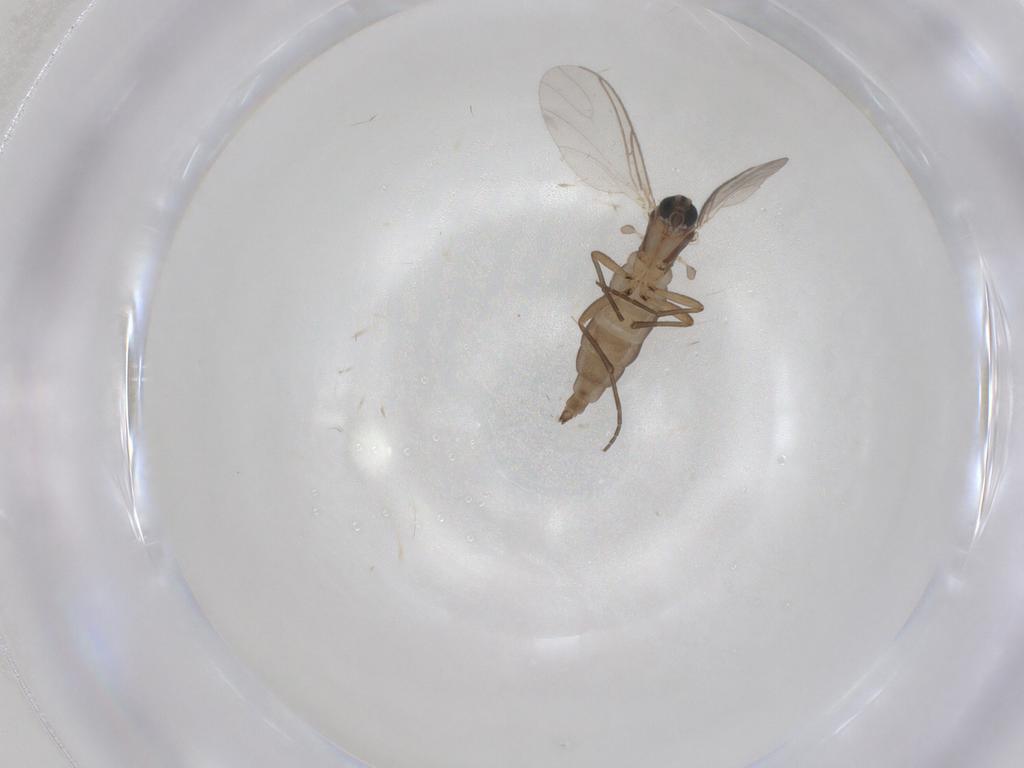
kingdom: Animalia
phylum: Arthropoda
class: Insecta
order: Diptera
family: Sciaridae
